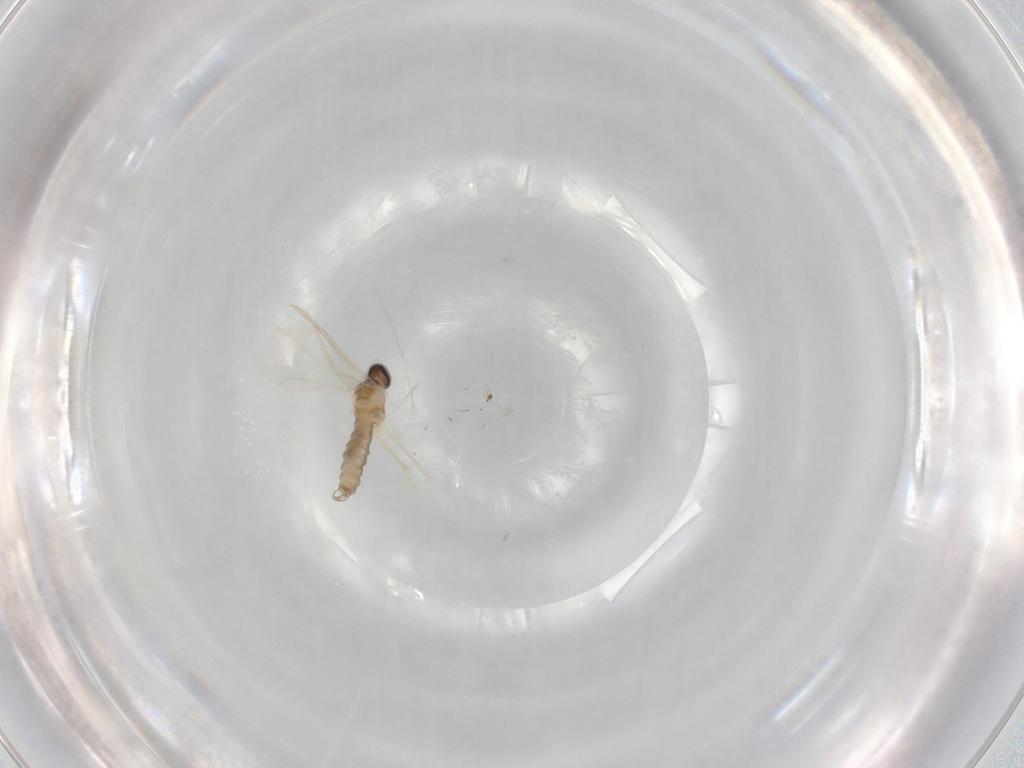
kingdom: Animalia
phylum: Arthropoda
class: Insecta
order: Diptera
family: Cecidomyiidae
